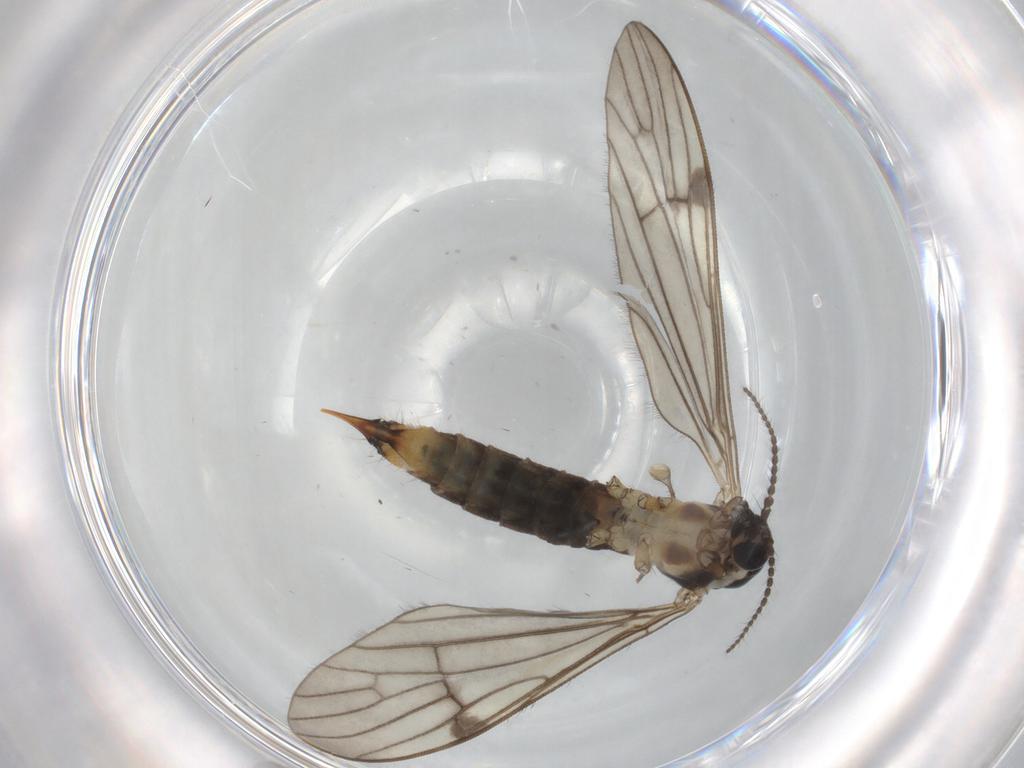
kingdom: Animalia
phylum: Arthropoda
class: Insecta
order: Diptera
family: Limoniidae
